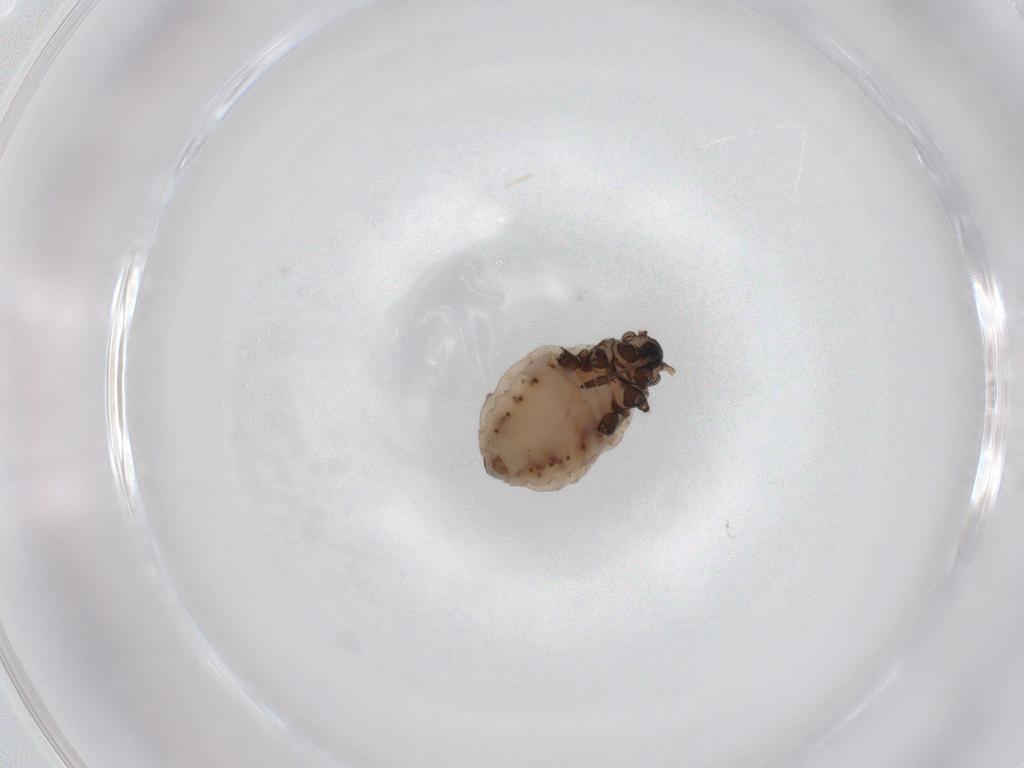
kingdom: Animalia
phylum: Arthropoda
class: Insecta
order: Hemiptera
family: Aphididae
